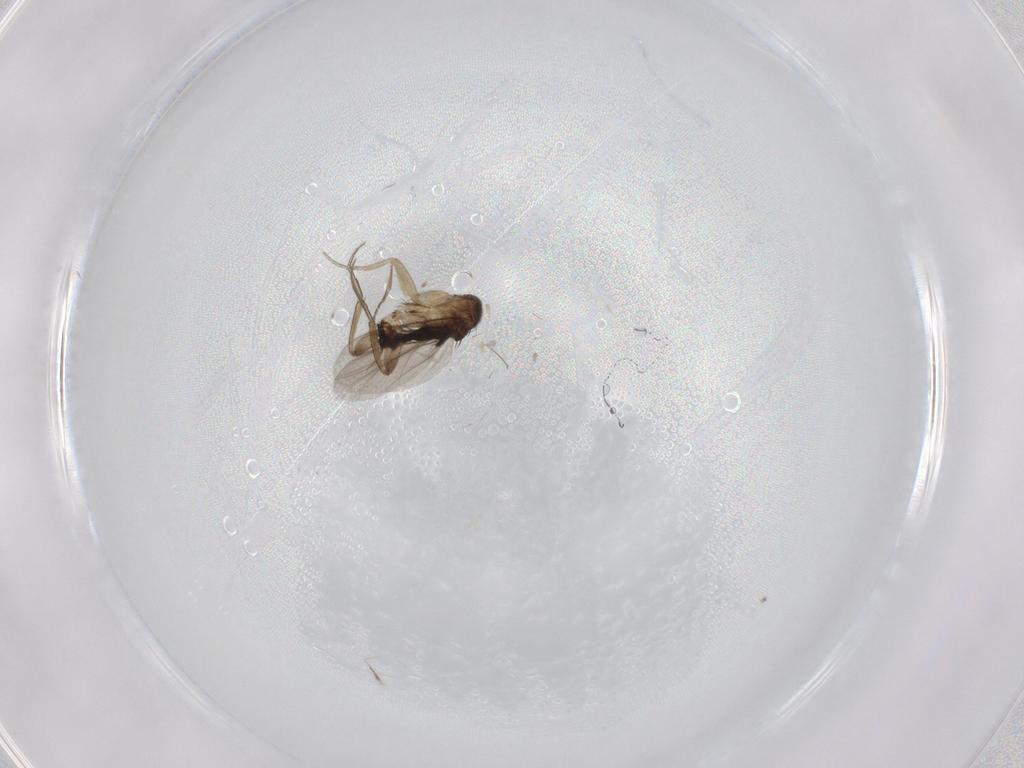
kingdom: Animalia
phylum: Arthropoda
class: Insecta
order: Diptera
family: Phoridae
